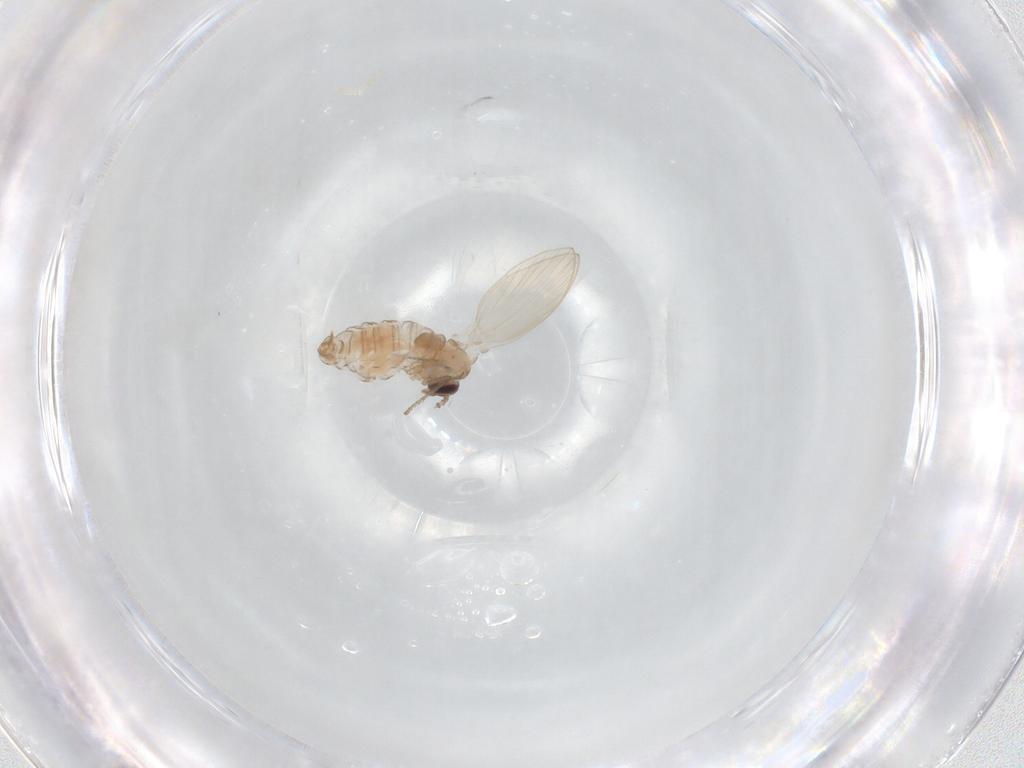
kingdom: Animalia
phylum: Arthropoda
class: Insecta
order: Diptera
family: Psychodidae
